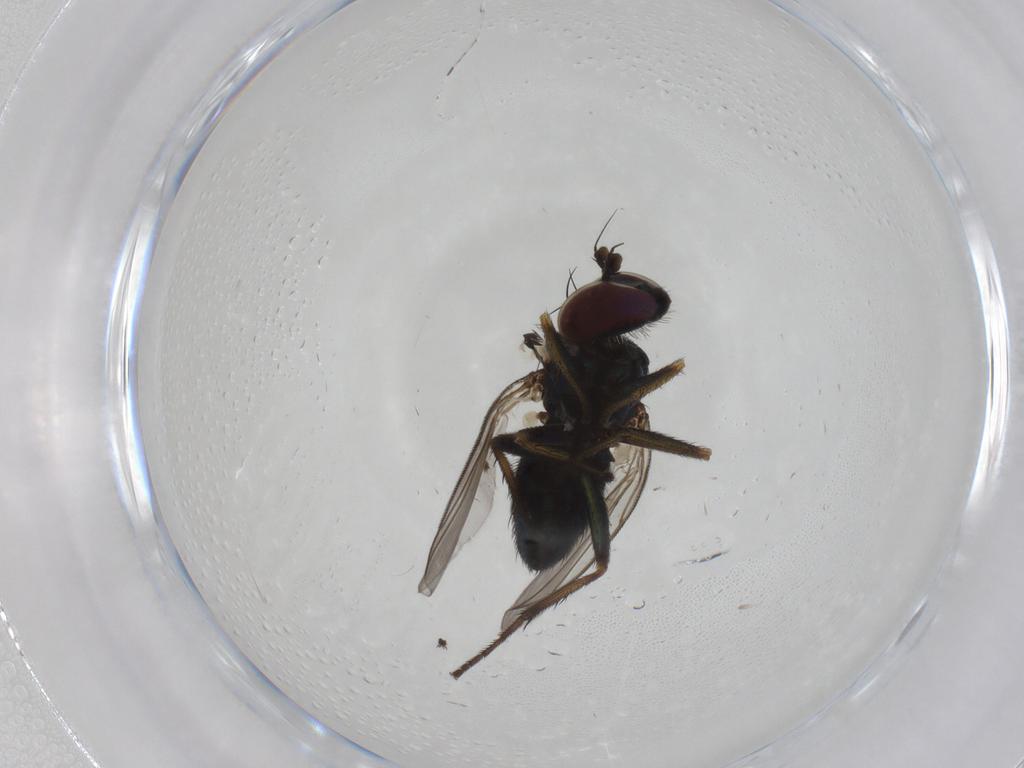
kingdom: Animalia
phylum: Arthropoda
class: Insecta
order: Diptera
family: Dolichopodidae
